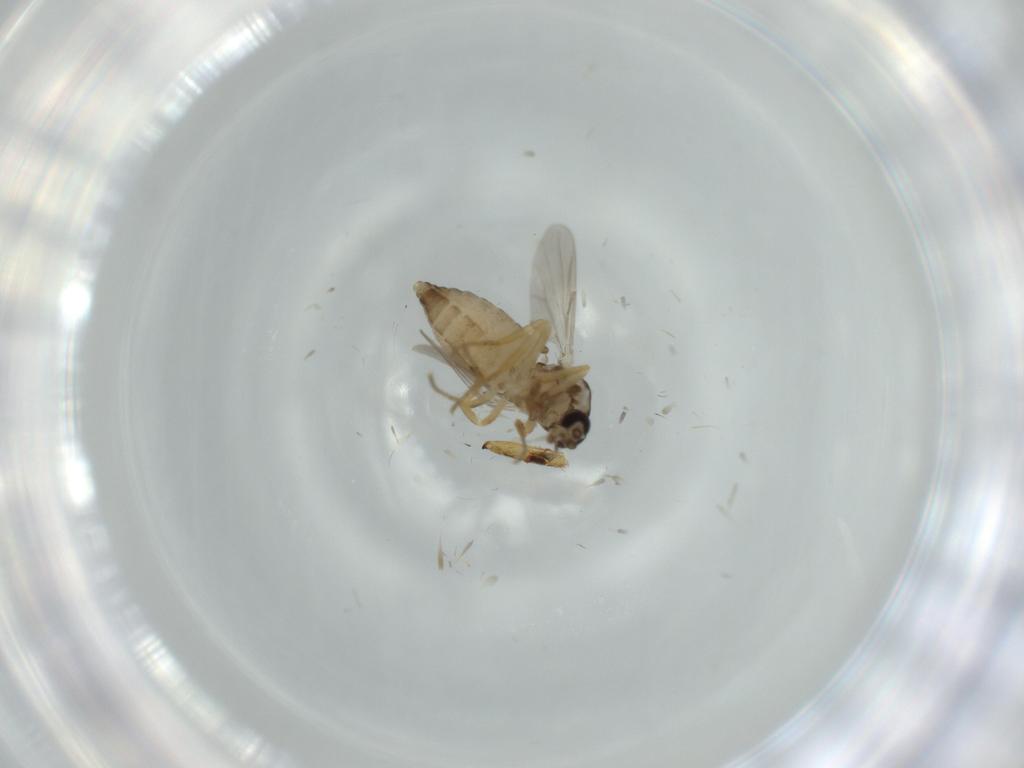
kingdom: Animalia
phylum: Arthropoda
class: Insecta
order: Diptera
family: Ceratopogonidae
